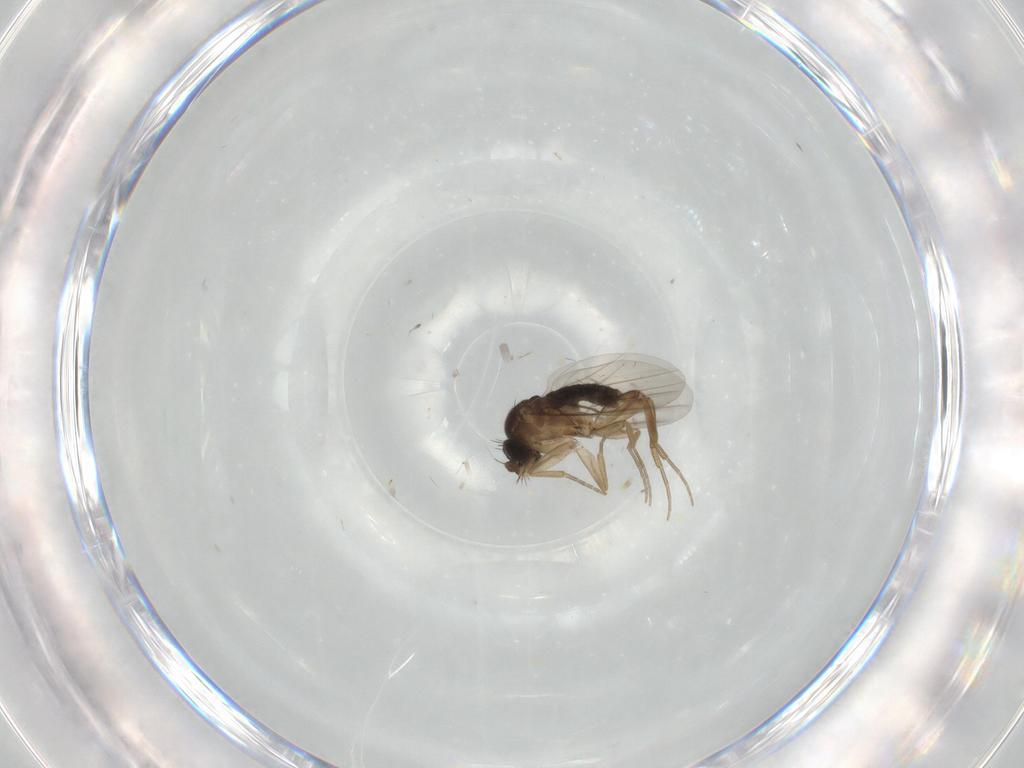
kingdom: Animalia
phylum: Arthropoda
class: Insecta
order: Diptera
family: Phoridae
